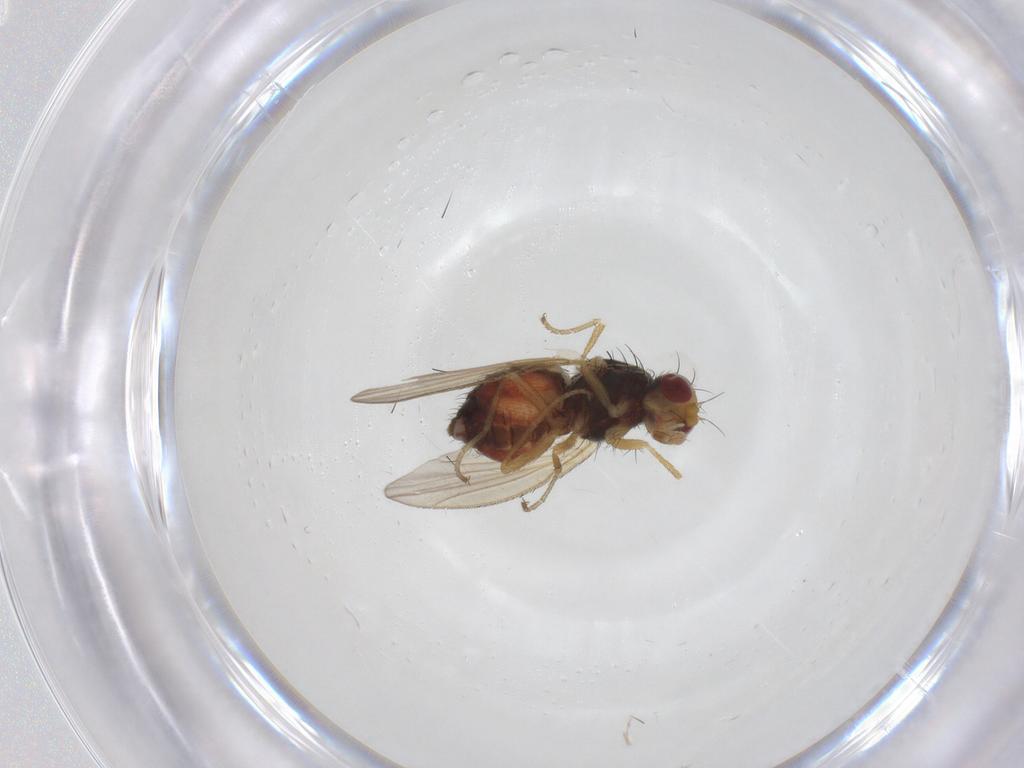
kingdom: Animalia
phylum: Arthropoda
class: Insecta
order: Diptera
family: Heleomyzidae
